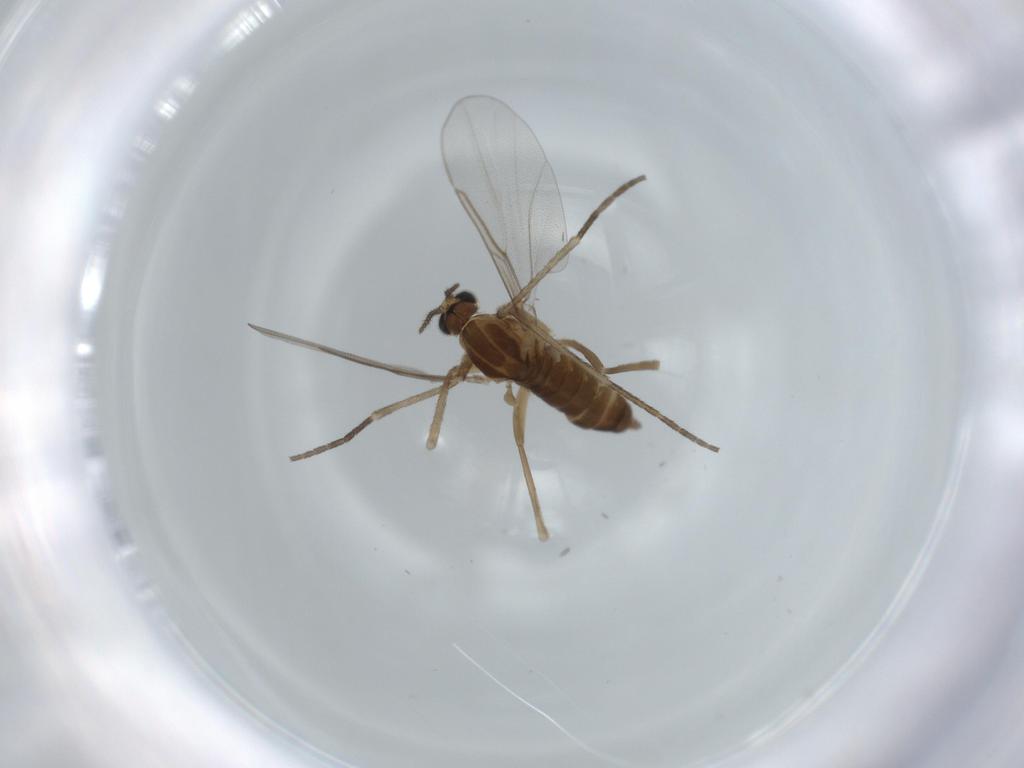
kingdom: Animalia
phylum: Arthropoda
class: Insecta
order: Diptera
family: Cecidomyiidae
